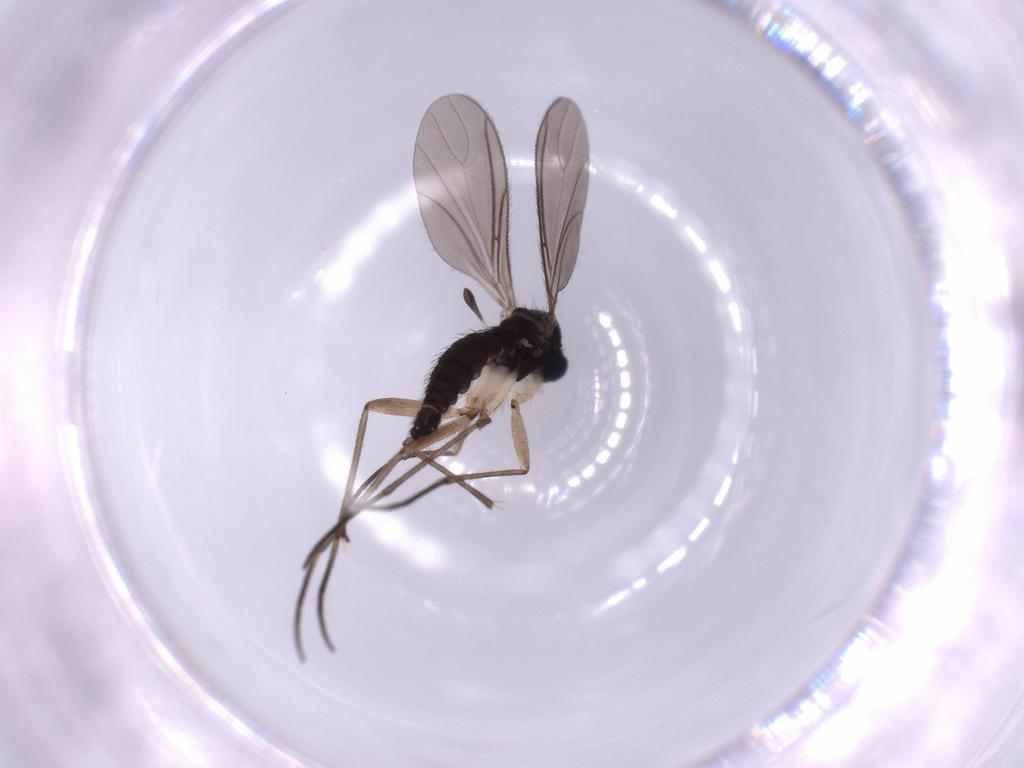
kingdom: Animalia
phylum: Arthropoda
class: Insecta
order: Diptera
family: Sciaridae
